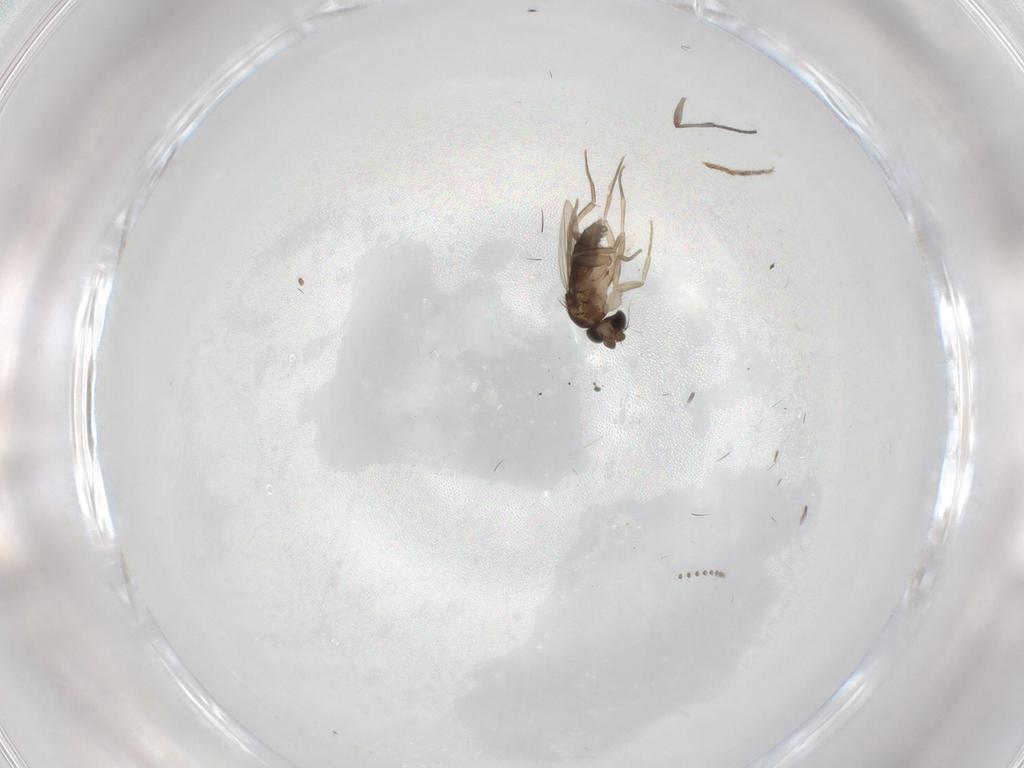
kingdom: Animalia
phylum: Arthropoda
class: Insecta
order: Diptera
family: Phoridae
